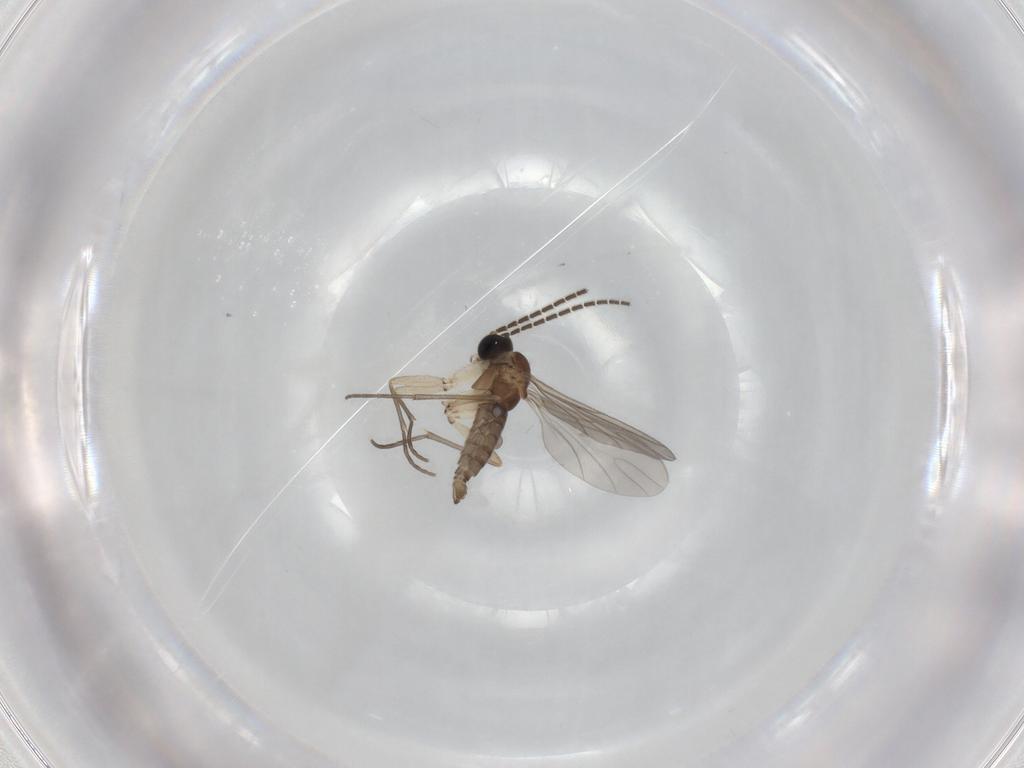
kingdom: Animalia
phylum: Arthropoda
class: Insecta
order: Diptera
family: Sciaridae
